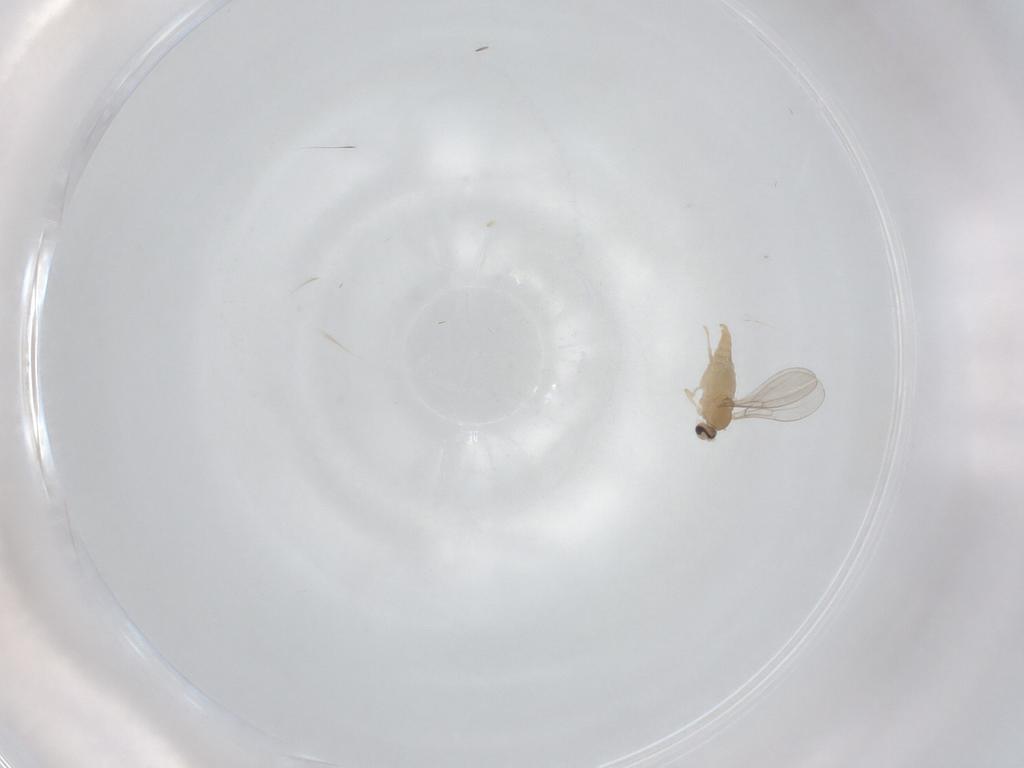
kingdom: Animalia
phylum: Arthropoda
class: Insecta
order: Diptera
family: Cecidomyiidae
